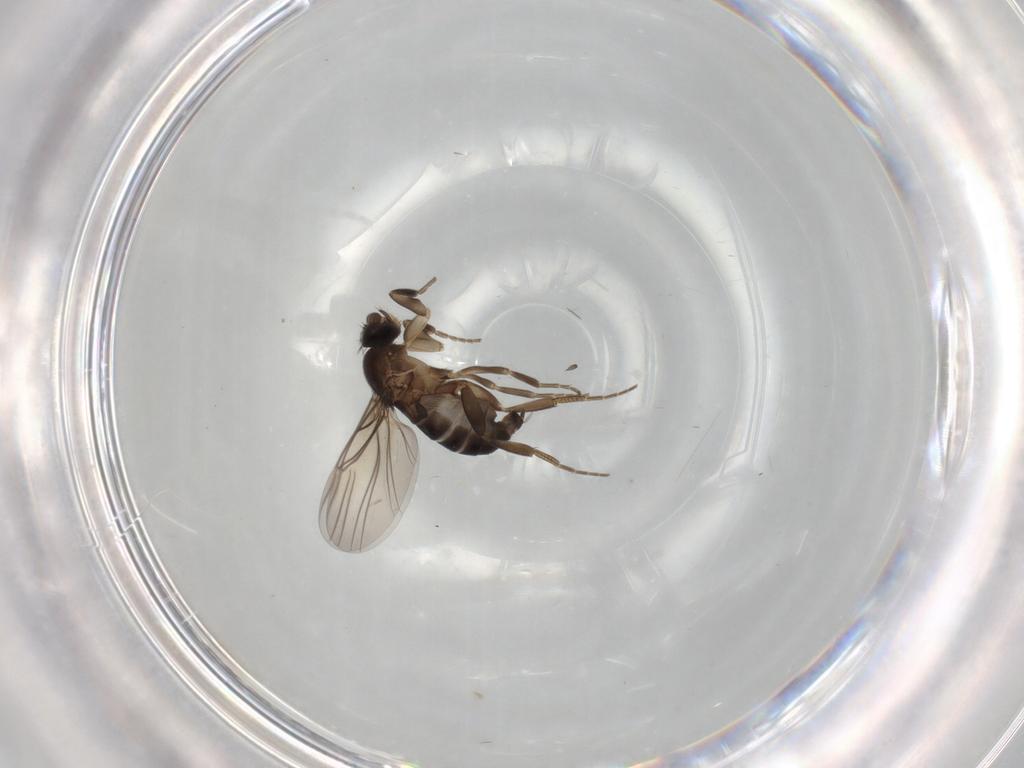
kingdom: Animalia
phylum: Arthropoda
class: Insecta
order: Diptera
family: Phoridae
